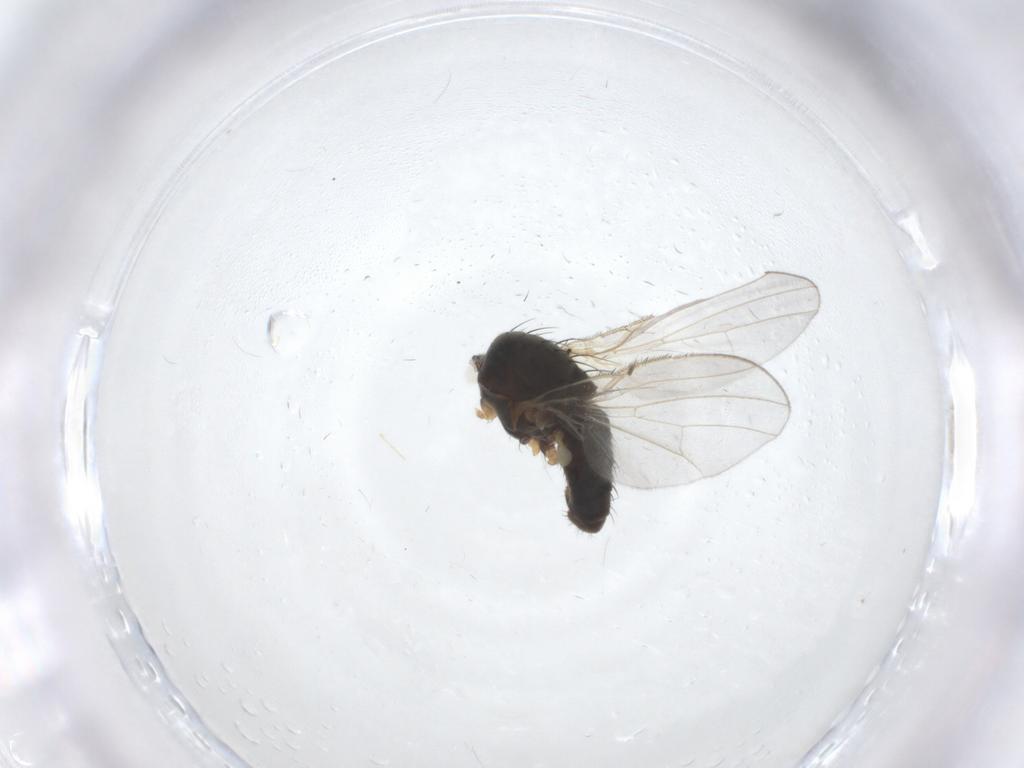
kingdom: Animalia
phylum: Arthropoda
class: Insecta
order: Diptera
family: Heleomyzidae
